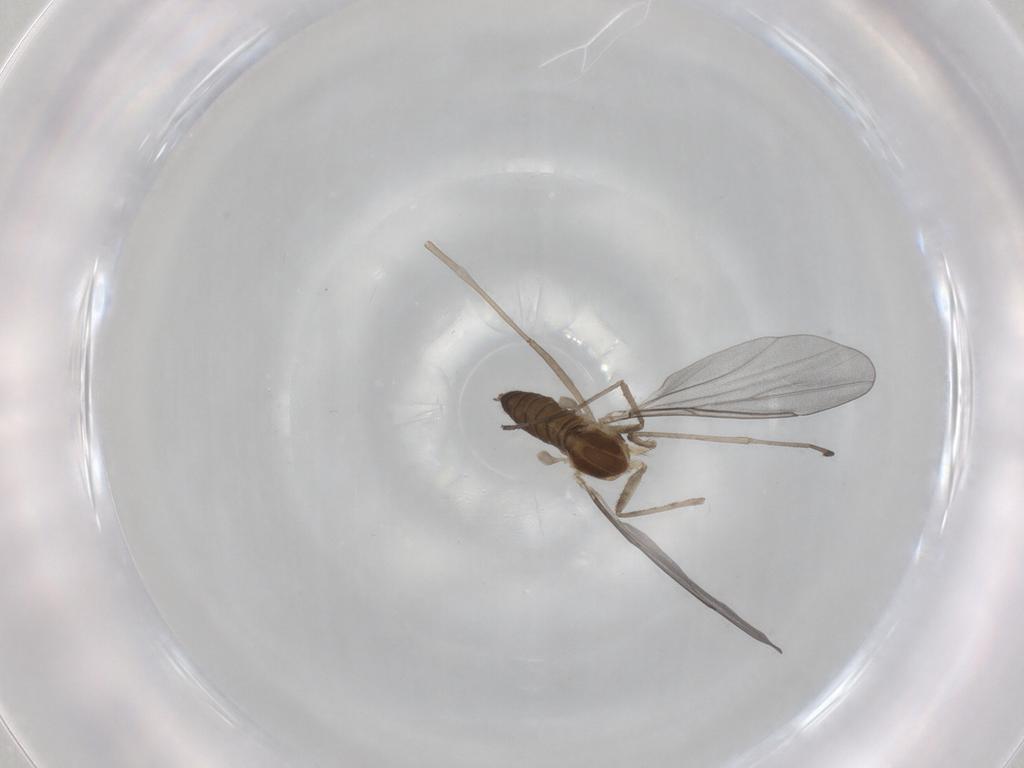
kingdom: Animalia
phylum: Arthropoda
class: Insecta
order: Diptera
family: Cecidomyiidae
